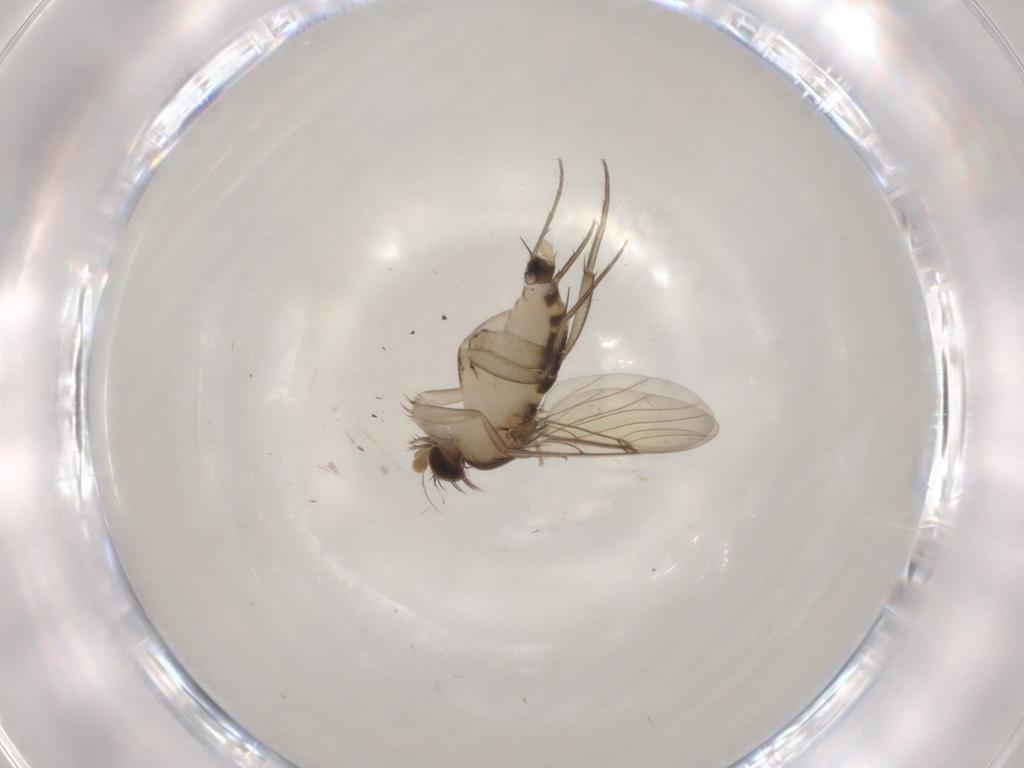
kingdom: Animalia
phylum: Arthropoda
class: Insecta
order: Diptera
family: Phoridae
